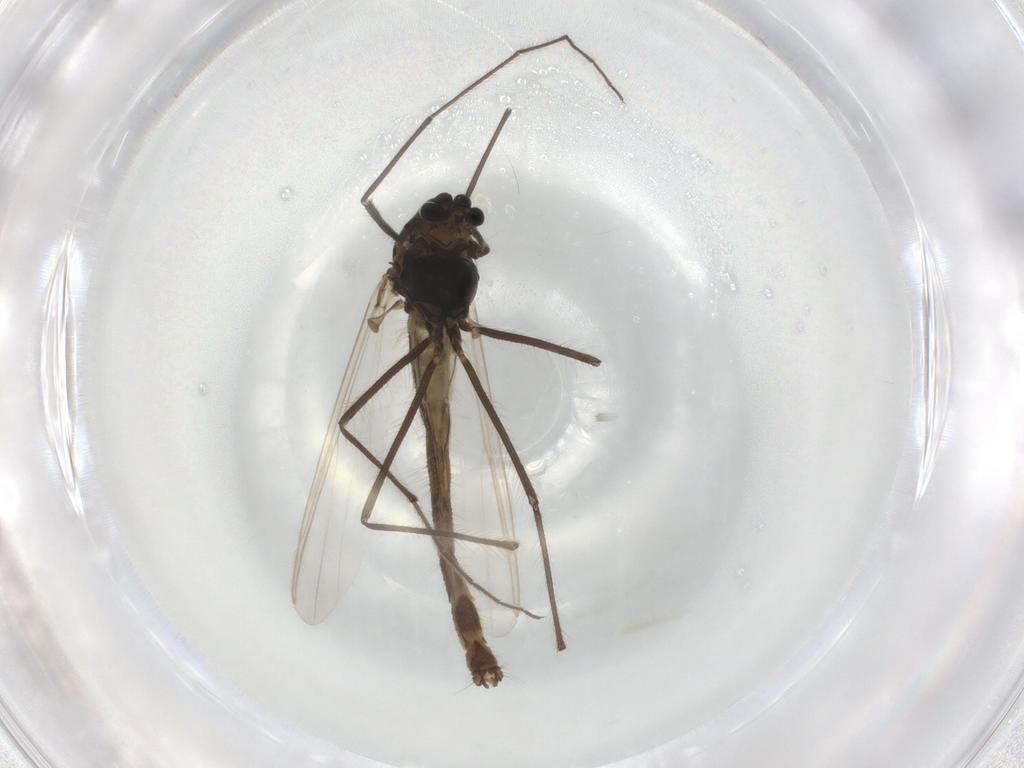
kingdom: Animalia
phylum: Arthropoda
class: Insecta
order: Diptera
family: Chironomidae
